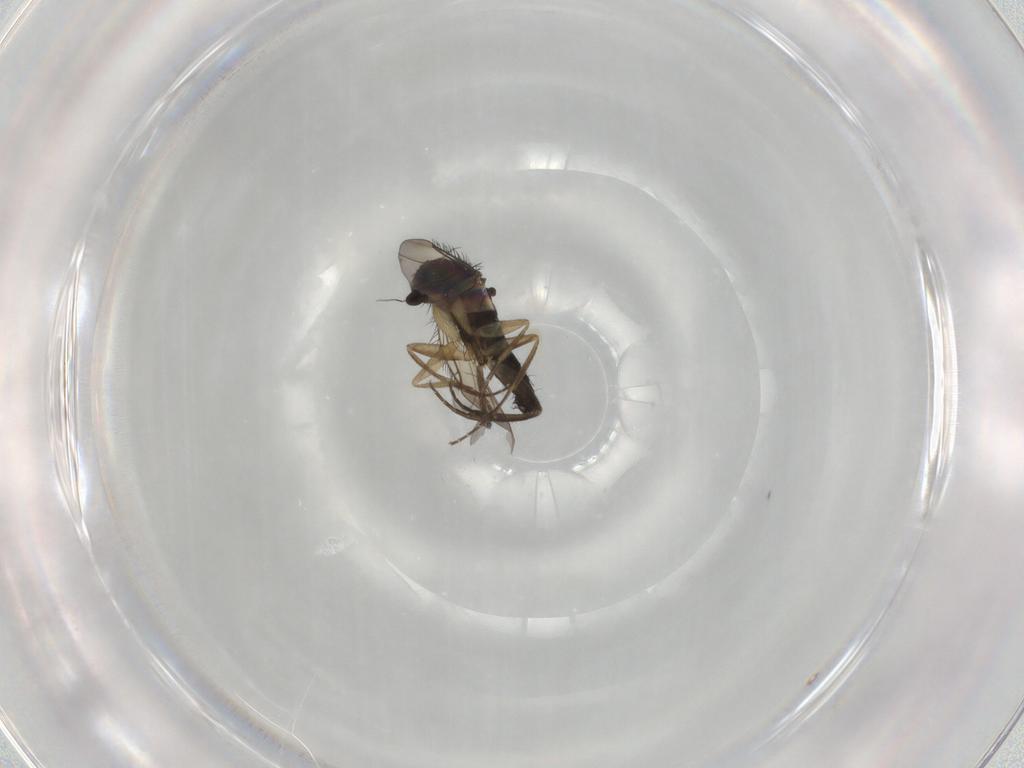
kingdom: Animalia
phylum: Arthropoda
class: Insecta
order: Diptera
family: Phoridae
